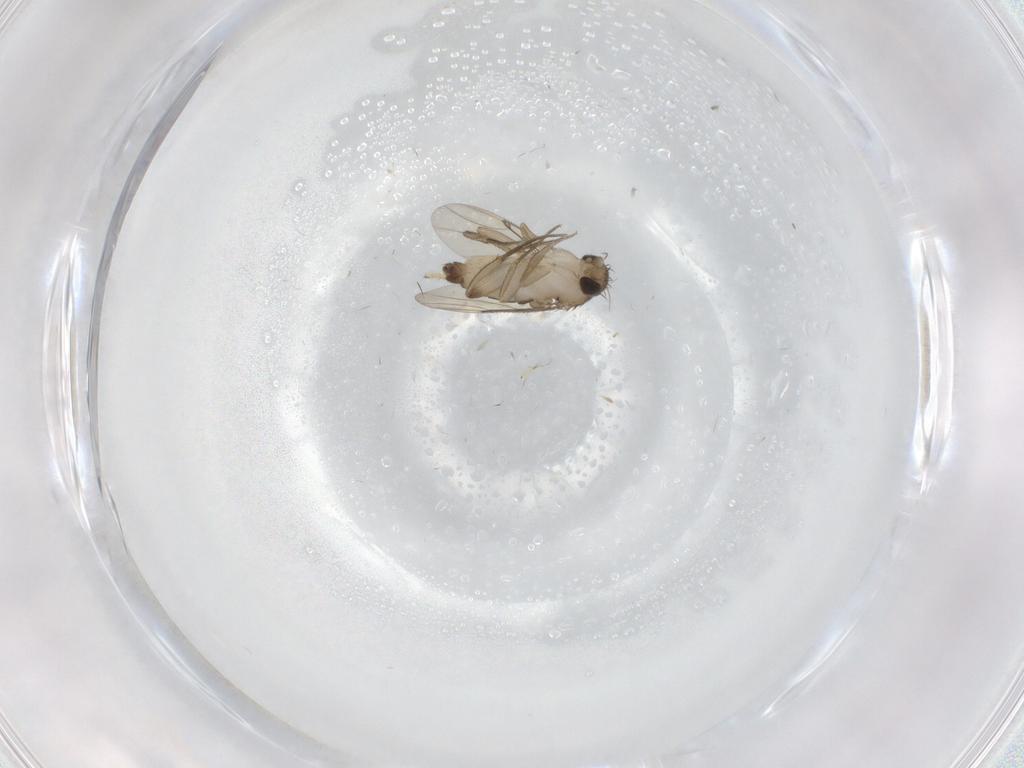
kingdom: Animalia
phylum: Arthropoda
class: Insecta
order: Diptera
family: Phoridae
